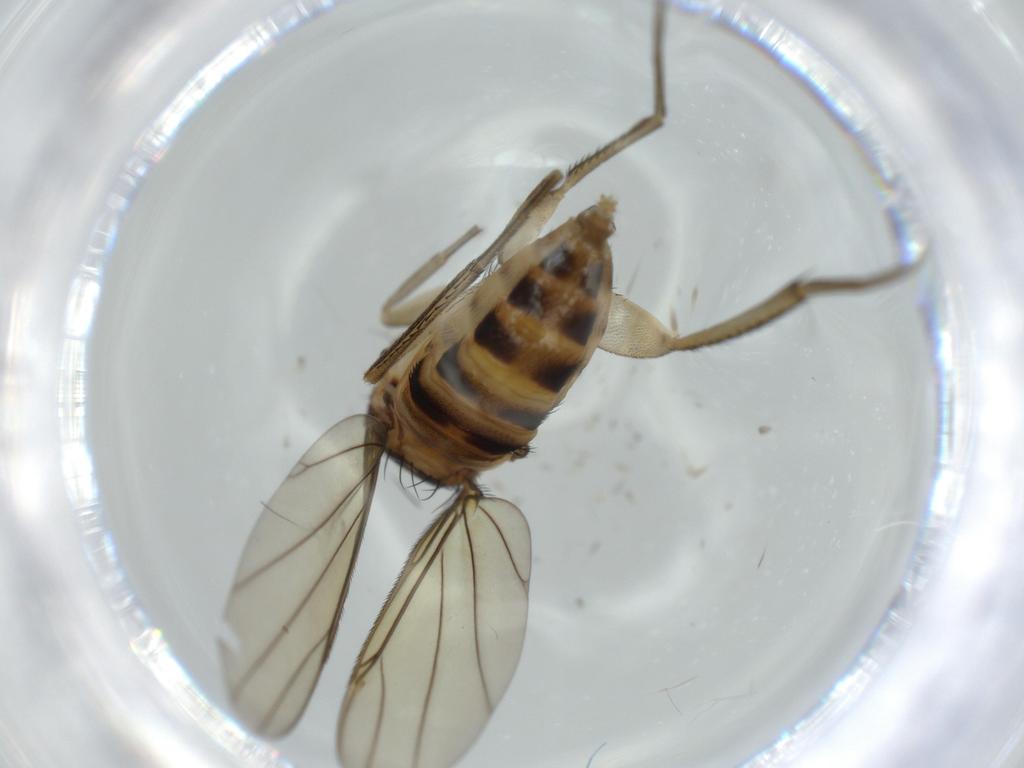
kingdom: Animalia
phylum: Arthropoda
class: Insecta
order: Diptera
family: Phoridae
